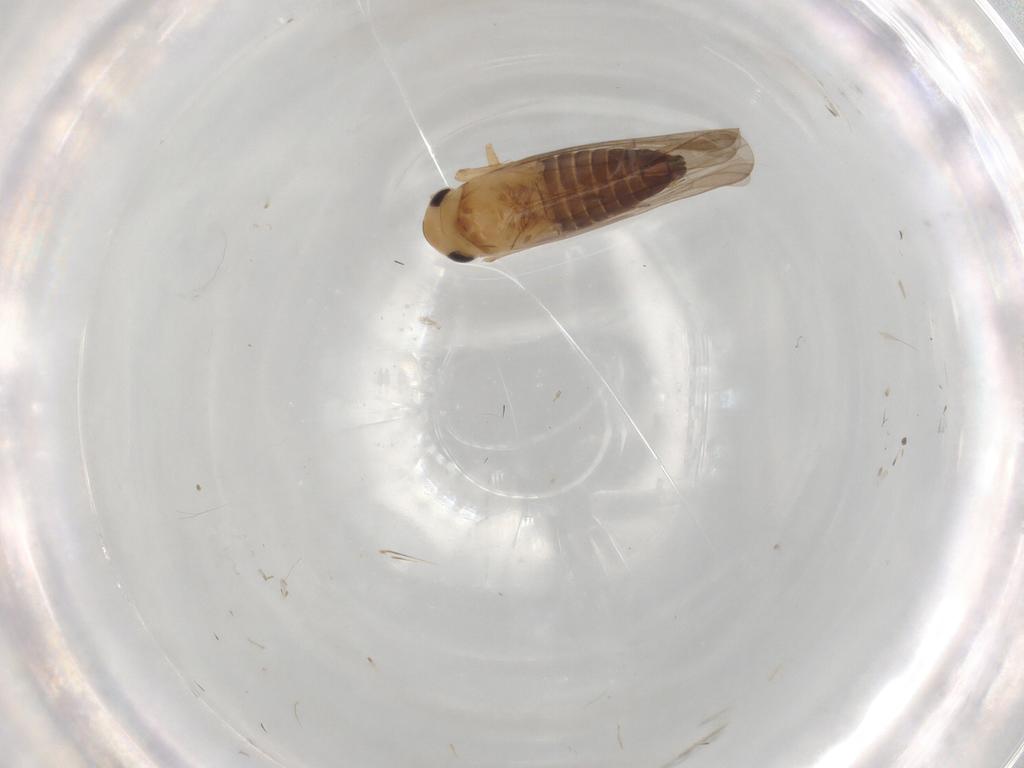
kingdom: Animalia
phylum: Arthropoda
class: Insecta
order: Hemiptera
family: Cicadellidae
